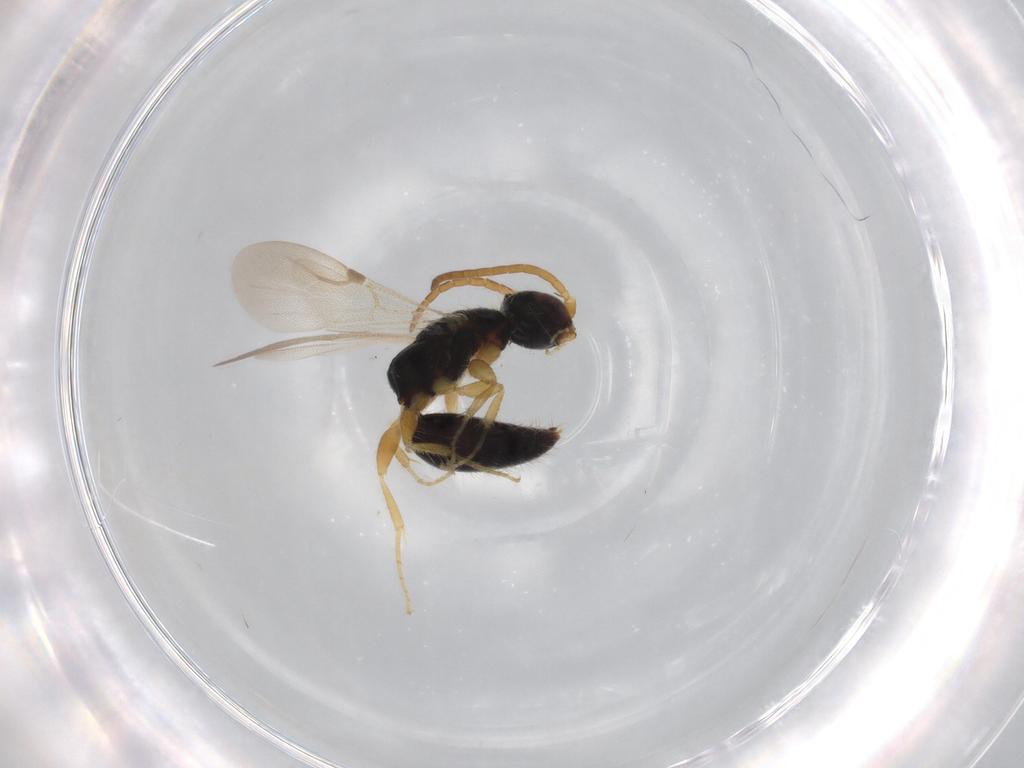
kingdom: Animalia
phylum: Arthropoda
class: Insecta
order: Hymenoptera
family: Bethylidae
